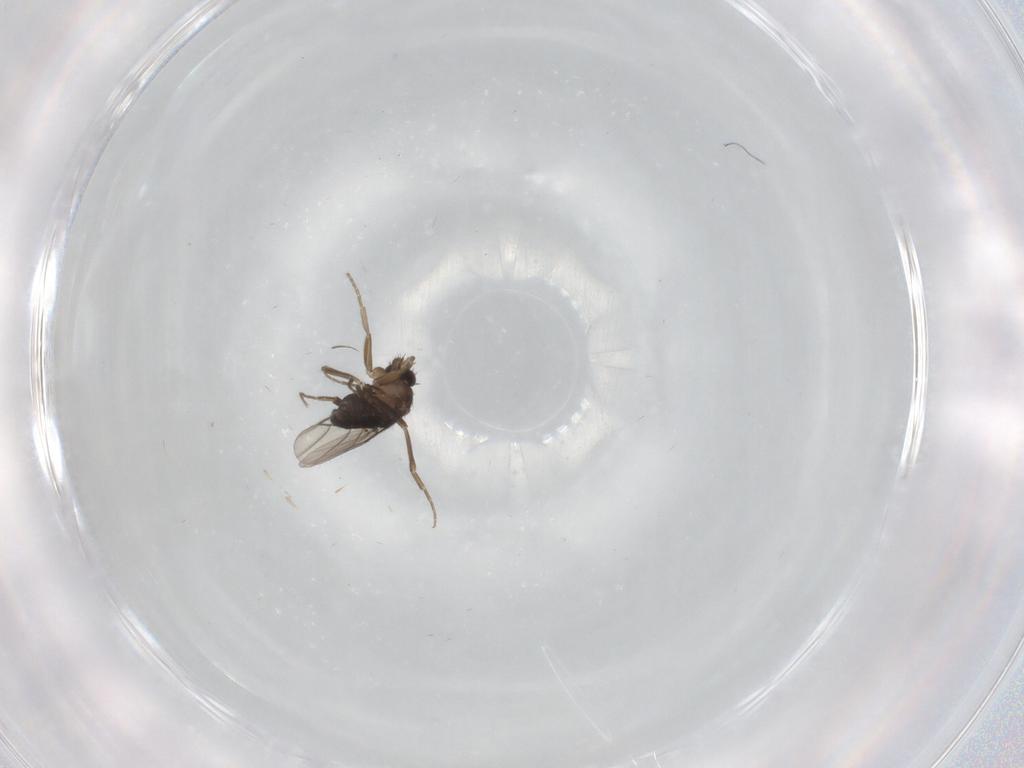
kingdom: Animalia
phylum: Arthropoda
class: Insecta
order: Diptera
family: Phoridae
